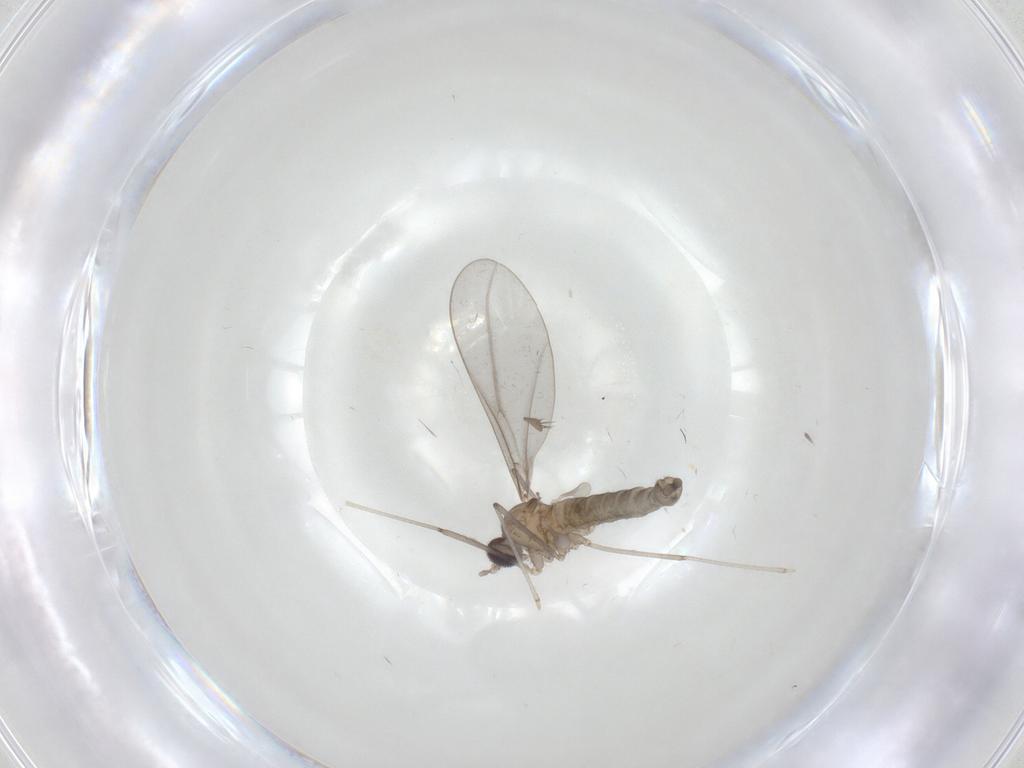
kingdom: Animalia
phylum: Arthropoda
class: Insecta
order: Diptera
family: Cecidomyiidae
